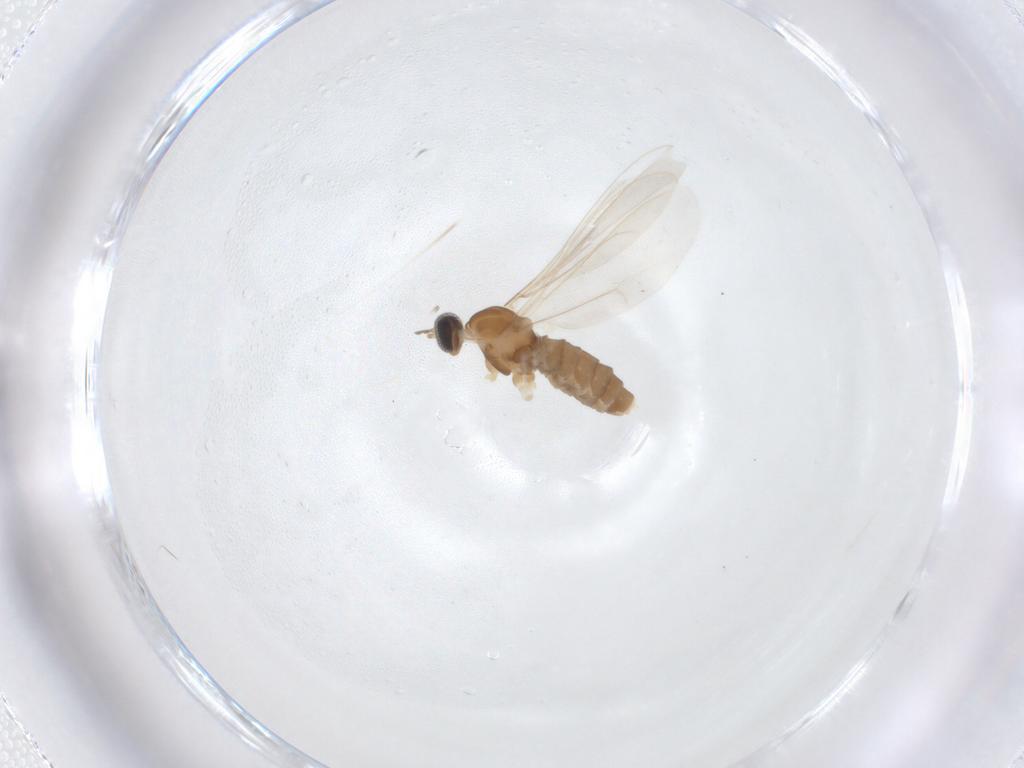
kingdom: Animalia
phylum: Arthropoda
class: Insecta
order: Diptera
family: Cecidomyiidae
